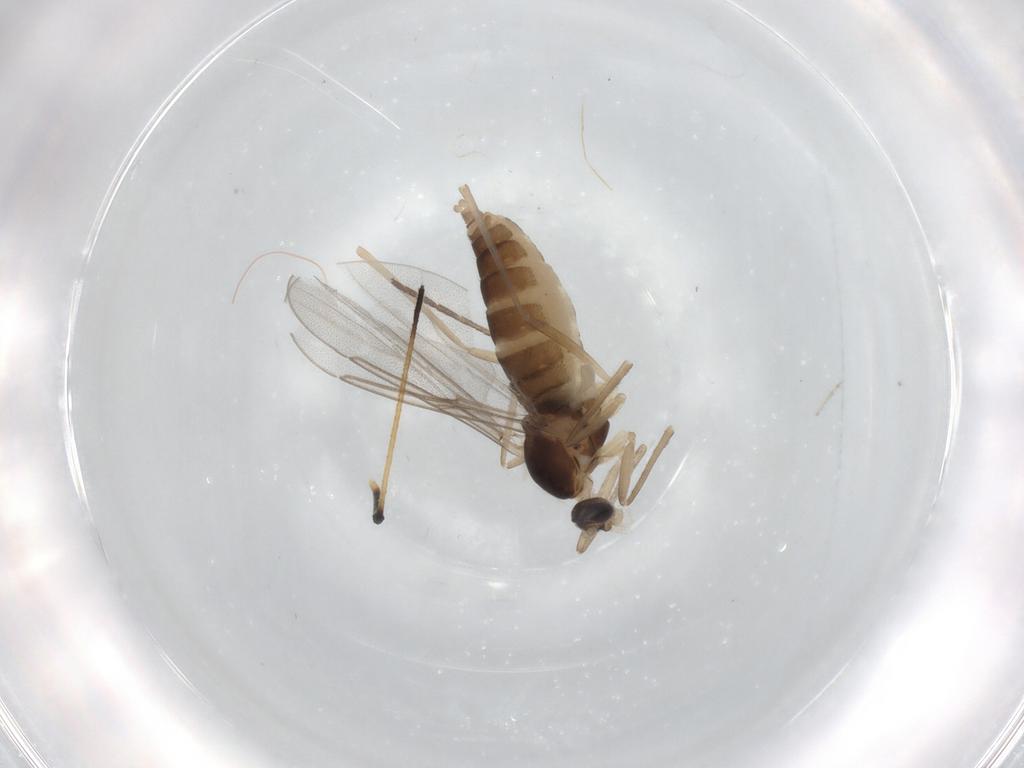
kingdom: Animalia
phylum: Arthropoda
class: Insecta
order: Diptera
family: Cecidomyiidae
